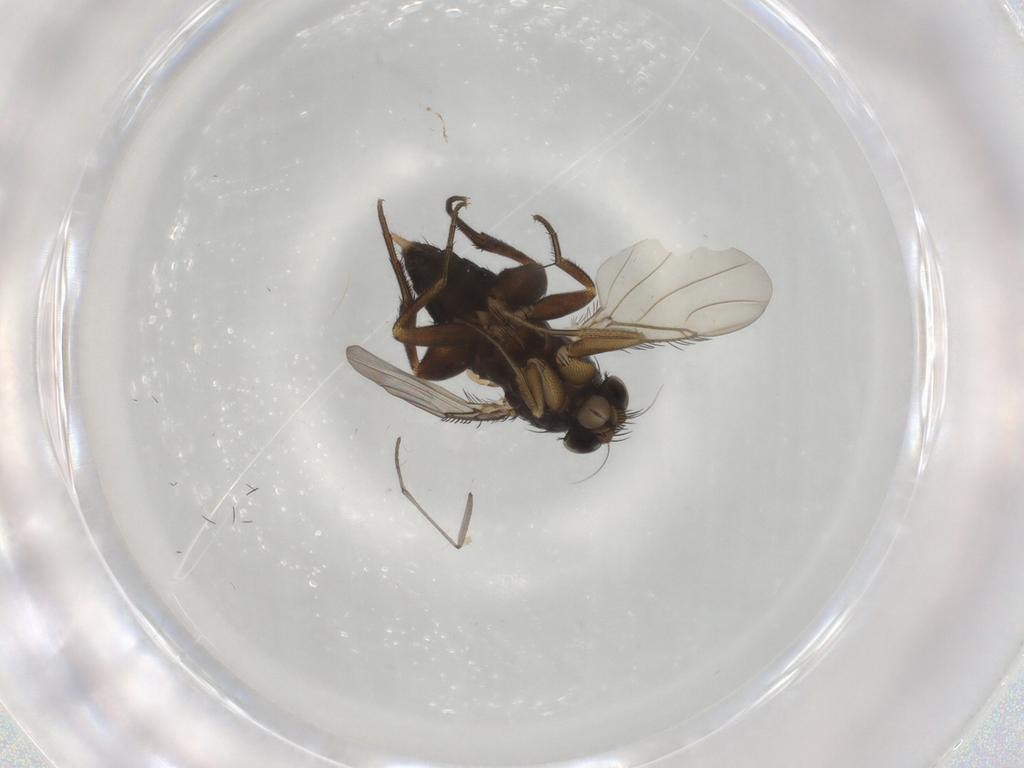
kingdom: Animalia
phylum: Arthropoda
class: Insecta
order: Diptera
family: Sciaridae
